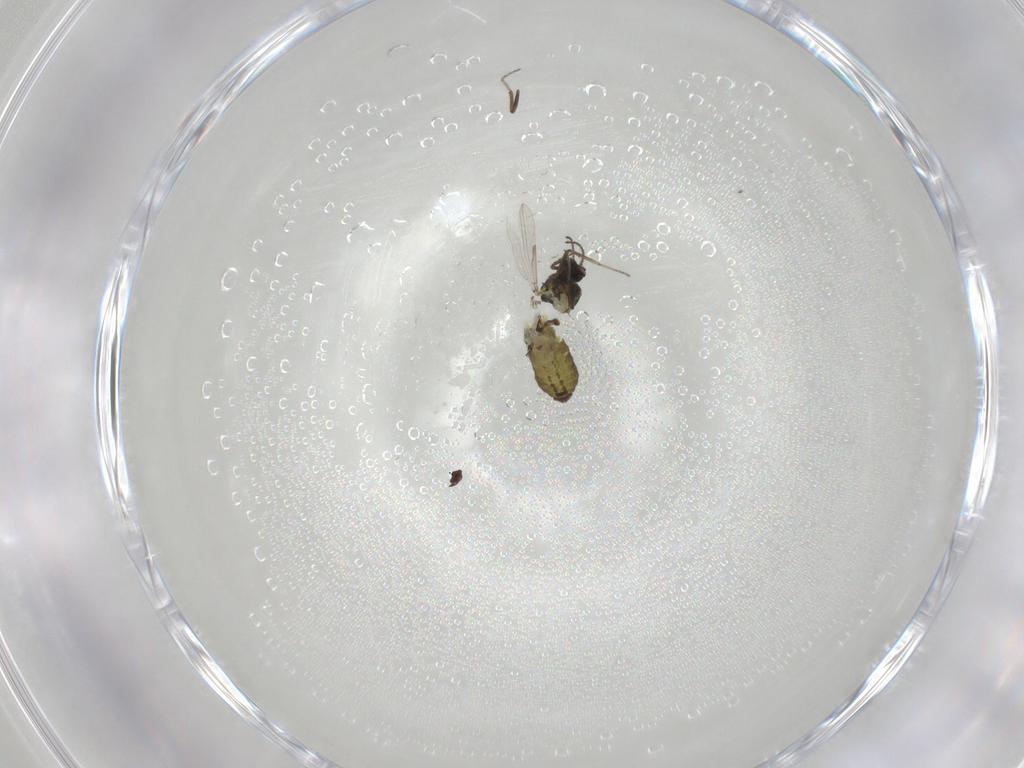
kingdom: Animalia
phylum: Arthropoda
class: Insecta
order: Diptera
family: Ceratopogonidae
